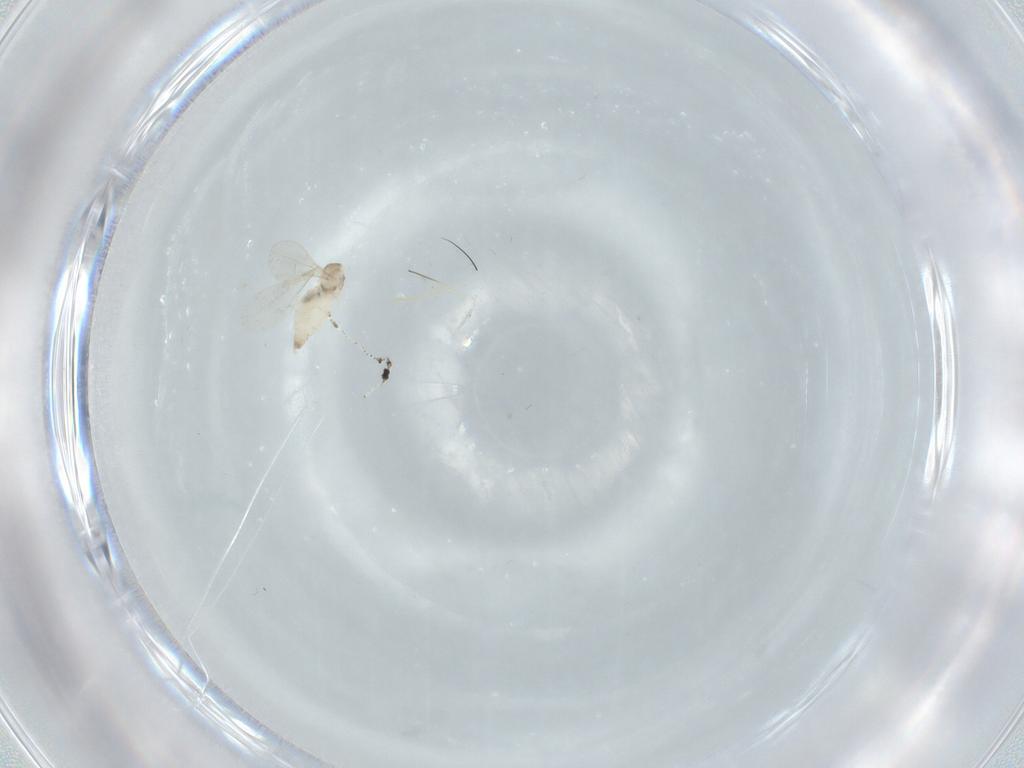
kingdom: Animalia
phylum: Arthropoda
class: Insecta
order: Diptera
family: Cecidomyiidae
